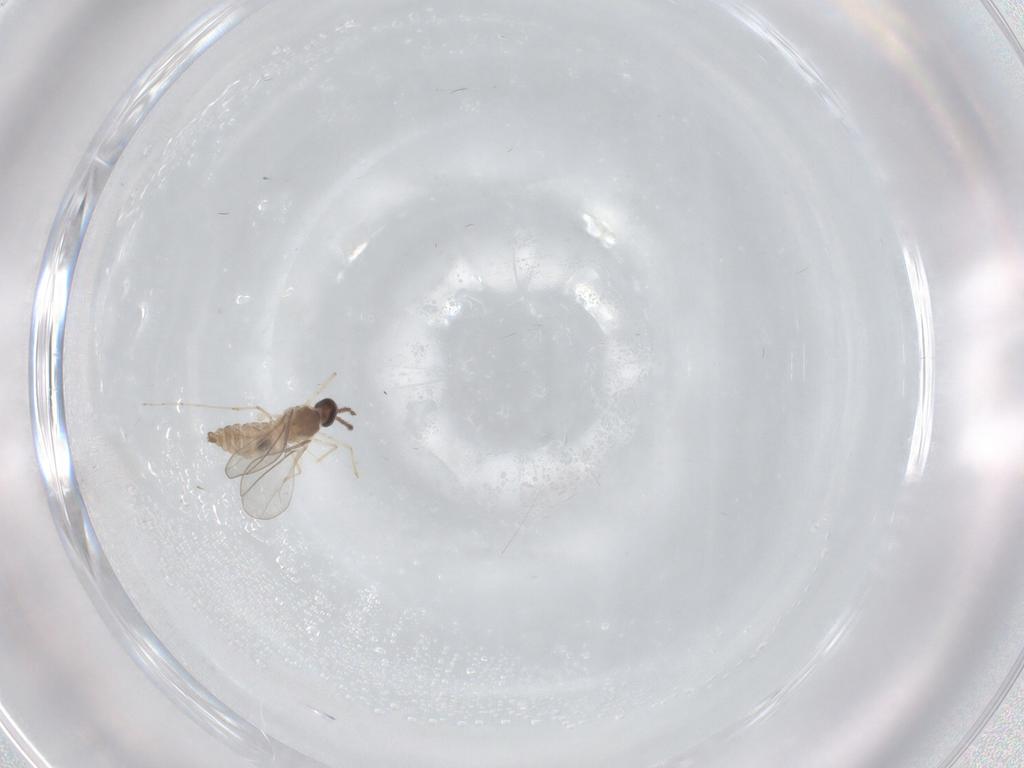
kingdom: Animalia
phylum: Arthropoda
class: Insecta
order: Diptera
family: Cecidomyiidae
